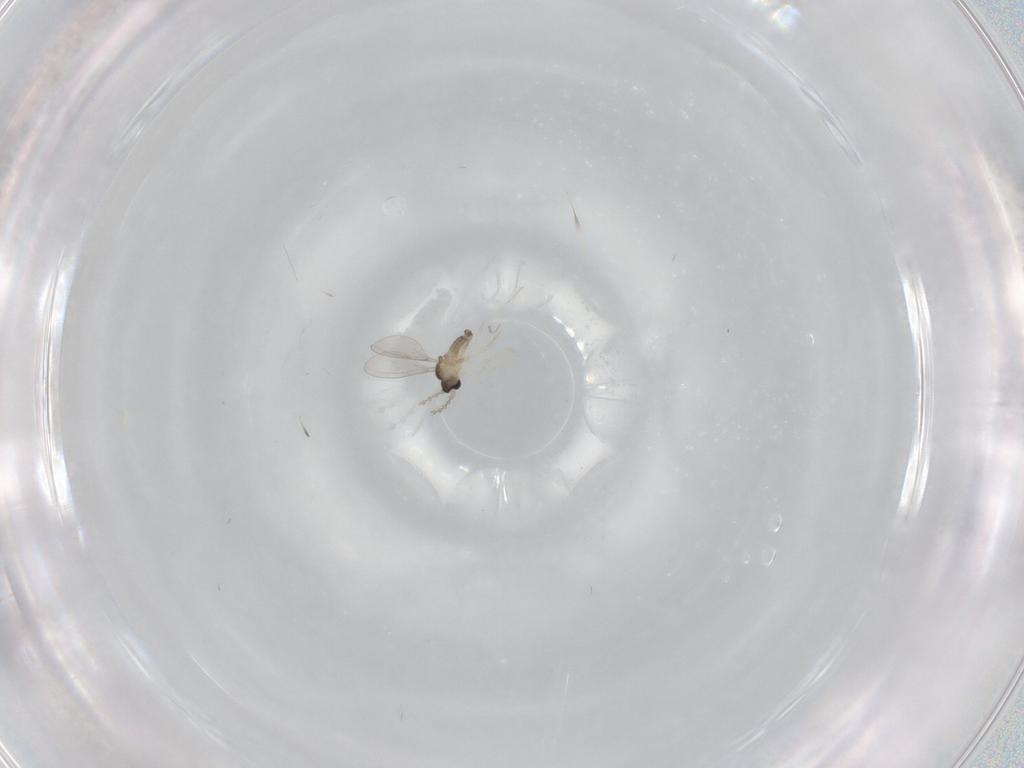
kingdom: Animalia
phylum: Arthropoda
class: Insecta
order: Diptera
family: Chironomidae
